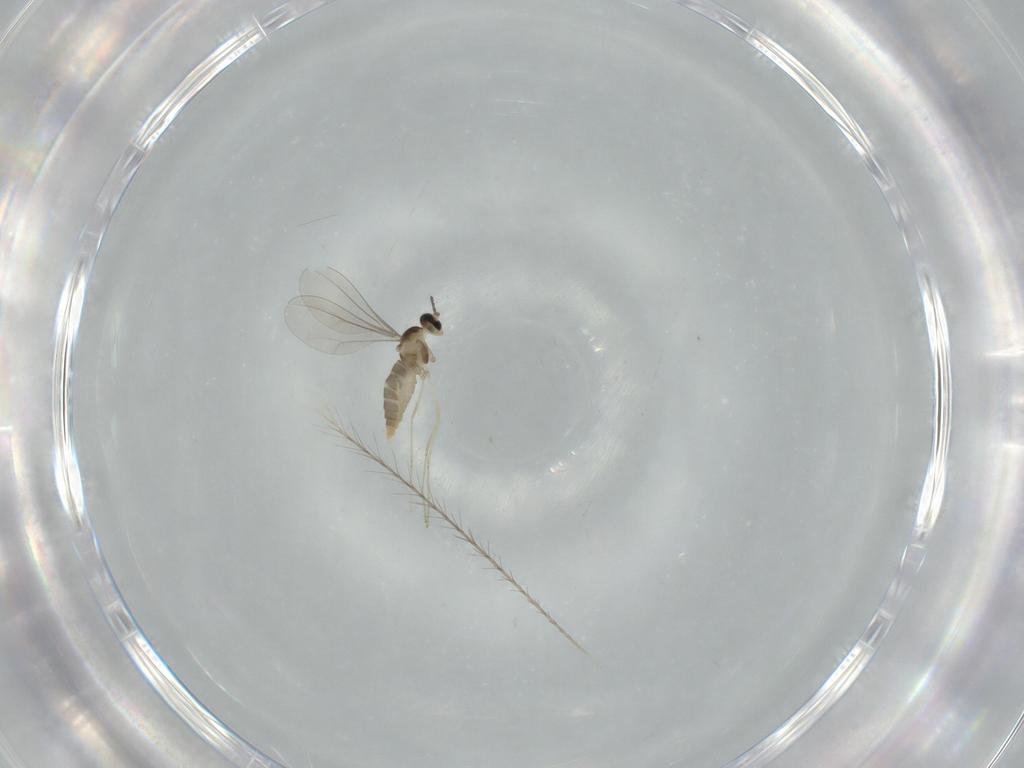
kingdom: Animalia
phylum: Arthropoda
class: Insecta
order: Diptera
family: Cecidomyiidae
